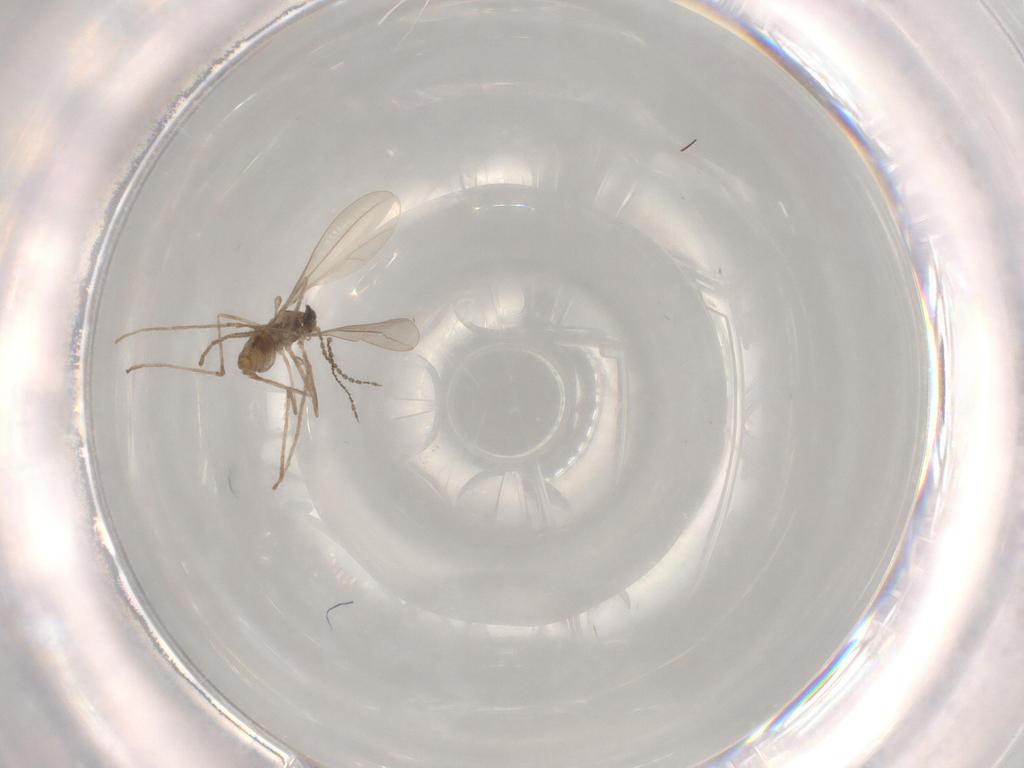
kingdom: Animalia
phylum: Arthropoda
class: Insecta
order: Diptera
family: Cecidomyiidae
